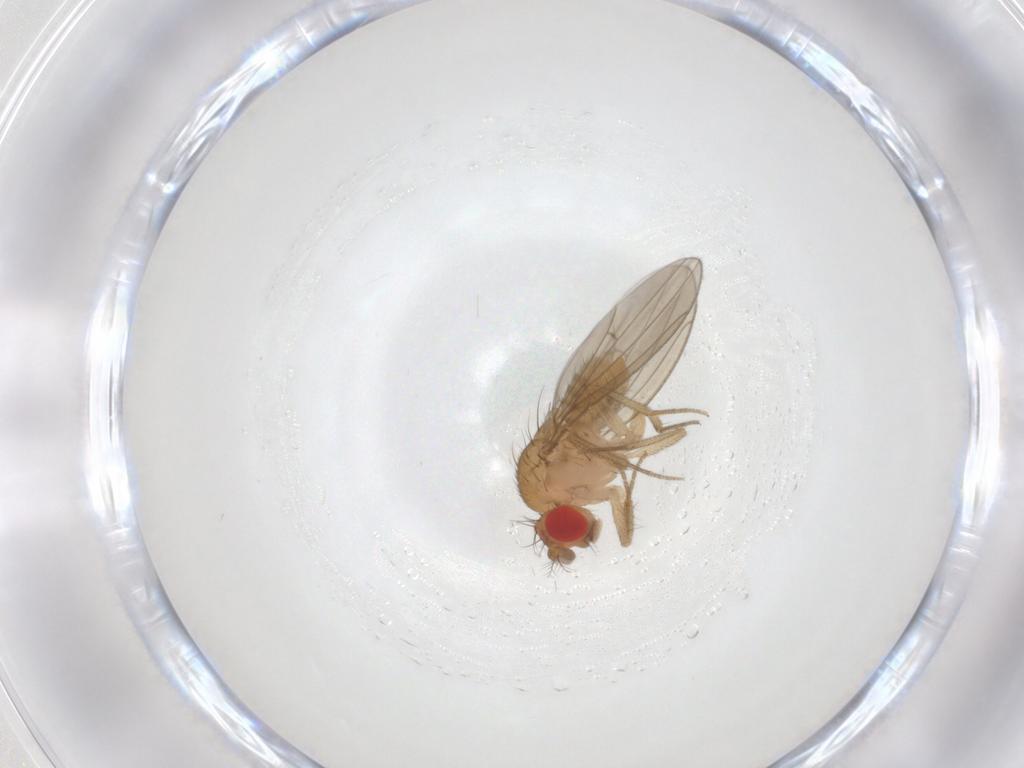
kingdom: Animalia
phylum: Arthropoda
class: Insecta
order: Diptera
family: Drosophilidae
